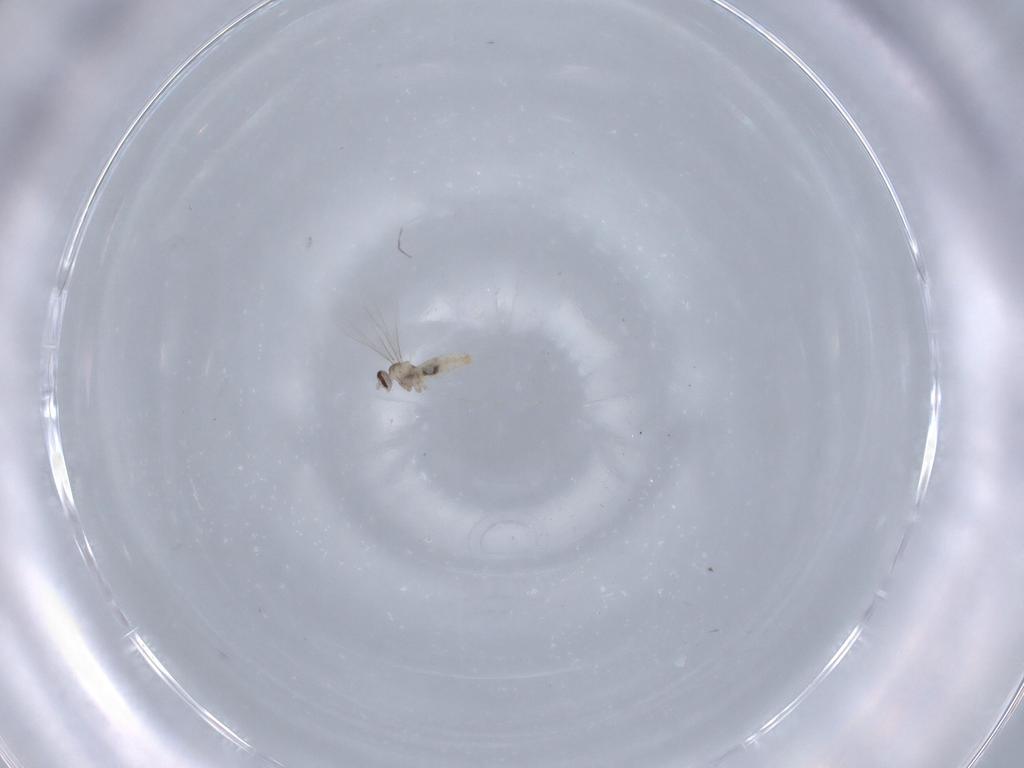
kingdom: Animalia
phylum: Arthropoda
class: Insecta
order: Diptera
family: Cecidomyiidae
